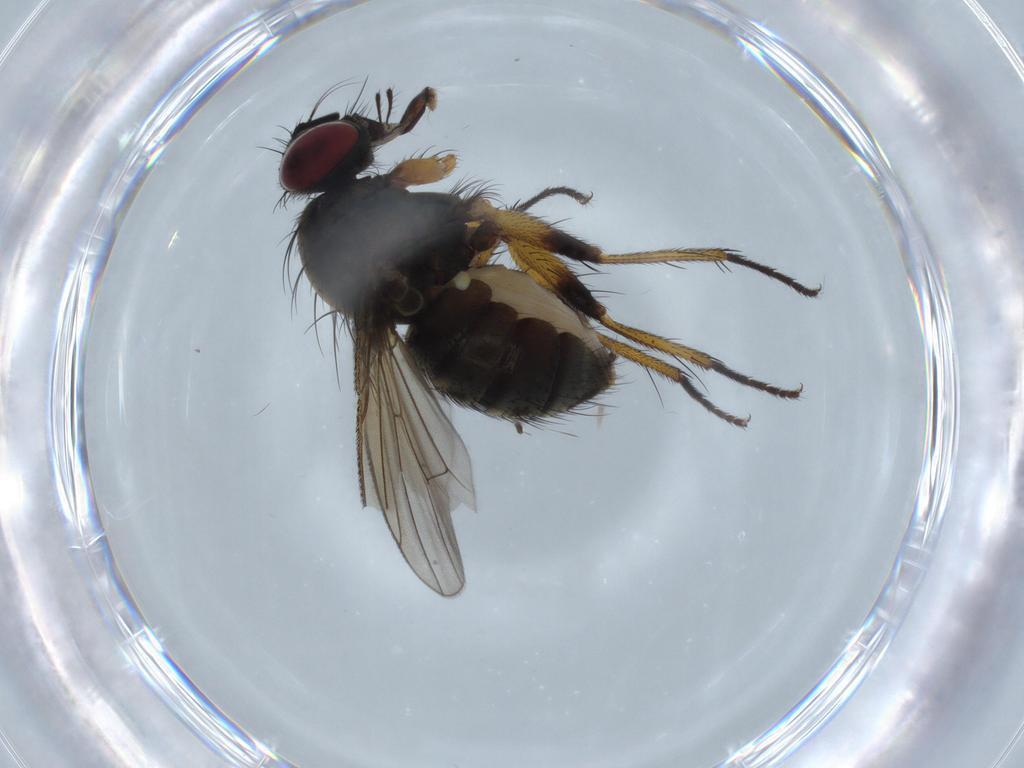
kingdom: Animalia
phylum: Arthropoda
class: Insecta
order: Diptera
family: Muscidae
